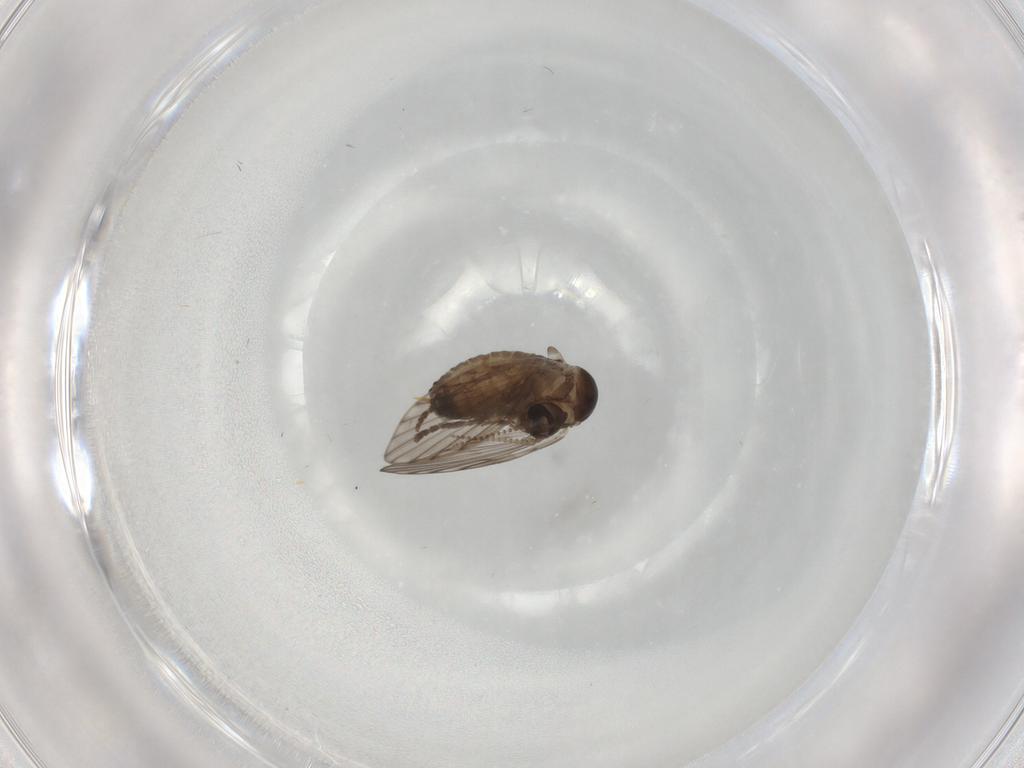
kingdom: Animalia
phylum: Arthropoda
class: Insecta
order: Diptera
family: Psychodidae
